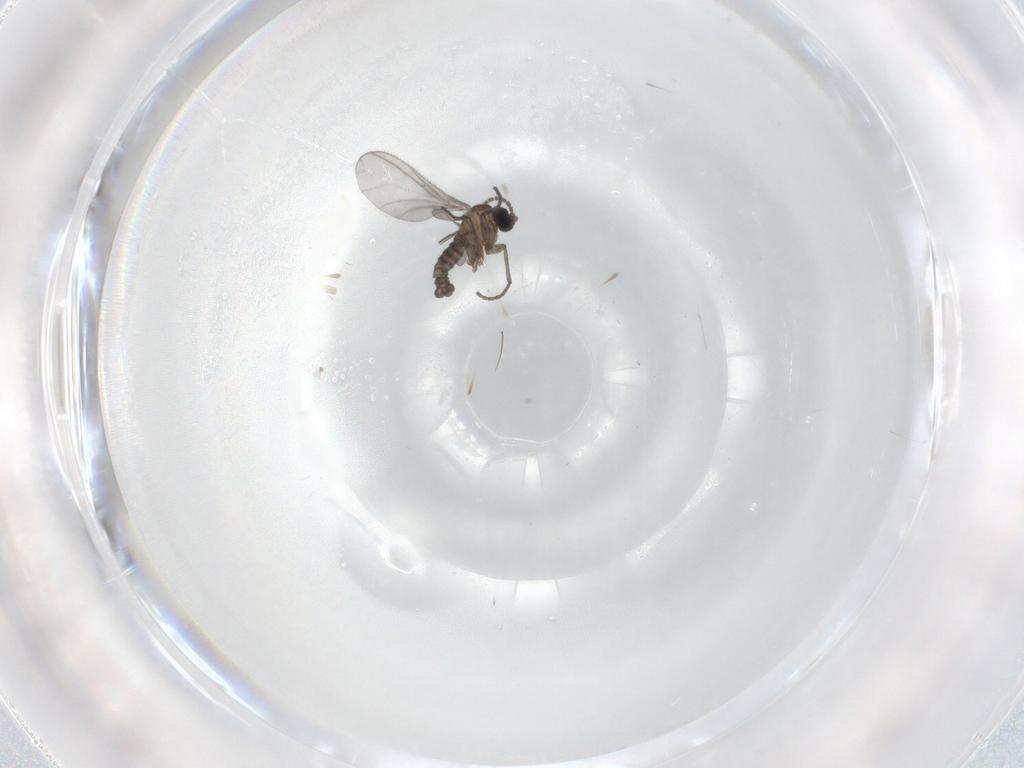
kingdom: Animalia
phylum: Arthropoda
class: Insecta
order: Diptera
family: Sciaridae
